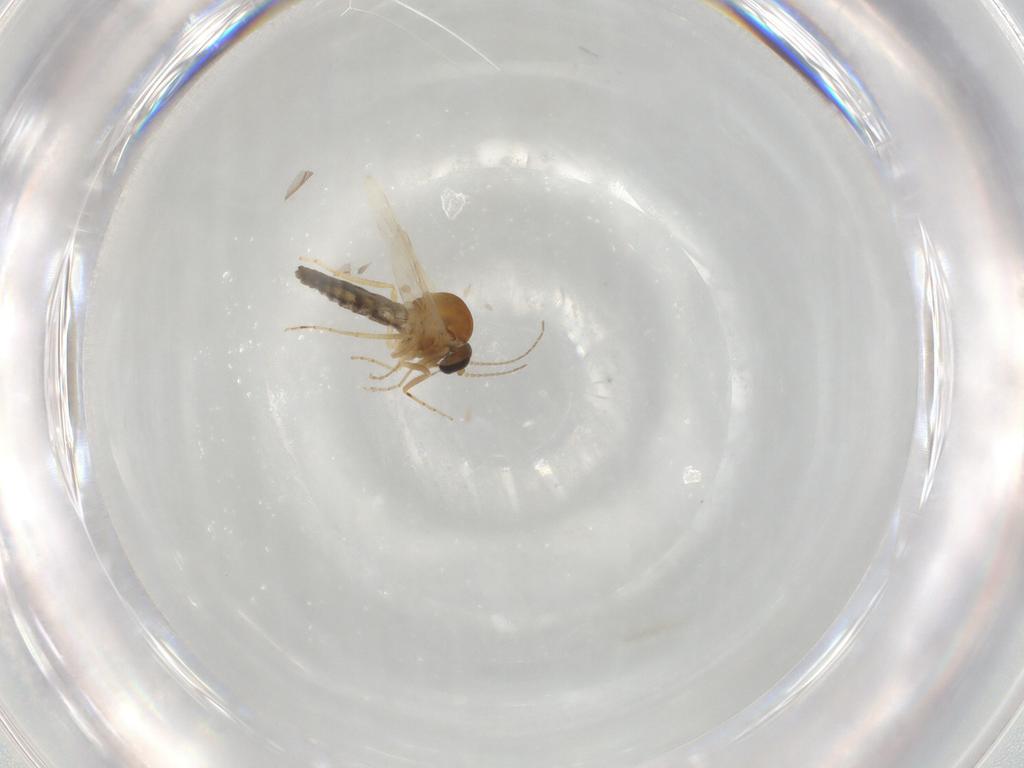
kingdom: Animalia
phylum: Arthropoda
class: Insecta
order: Diptera
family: Ceratopogonidae
